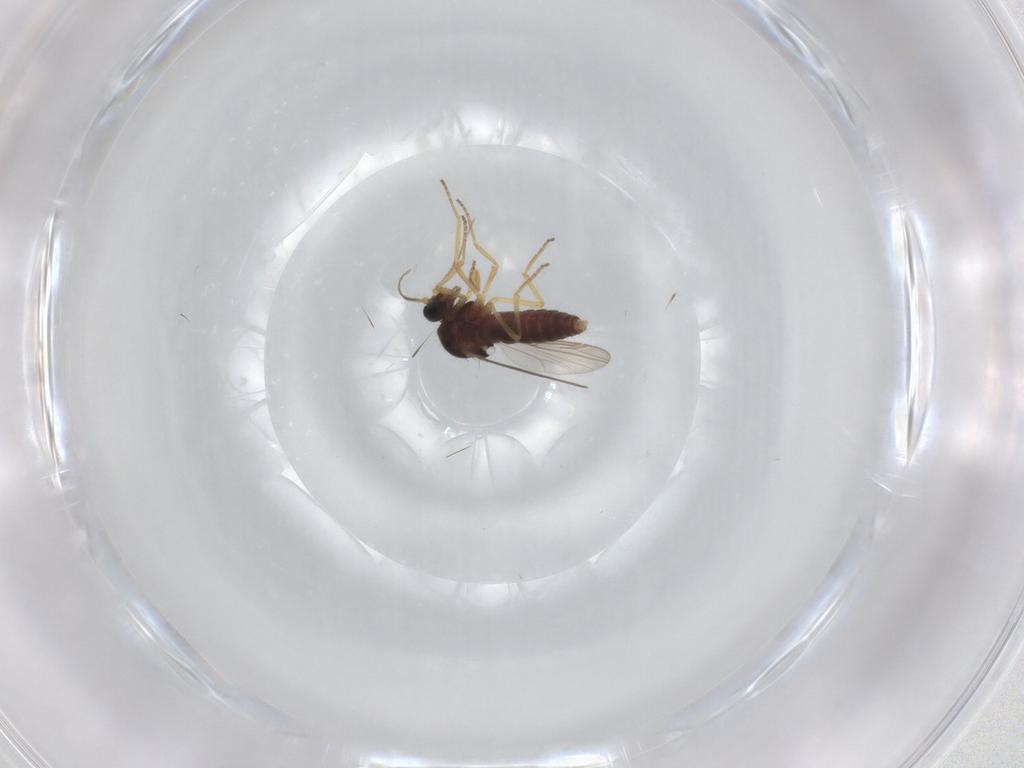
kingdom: Animalia
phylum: Arthropoda
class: Insecta
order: Diptera
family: Ceratopogonidae
